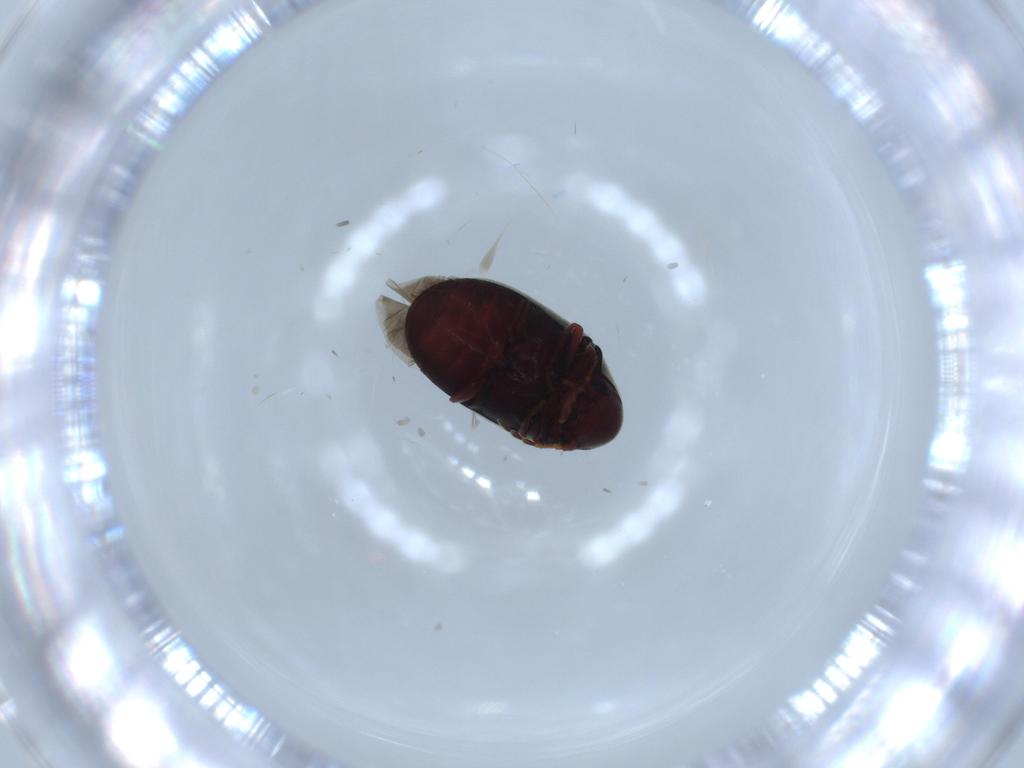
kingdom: Animalia
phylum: Arthropoda
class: Insecta
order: Coleoptera
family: Ptinidae
